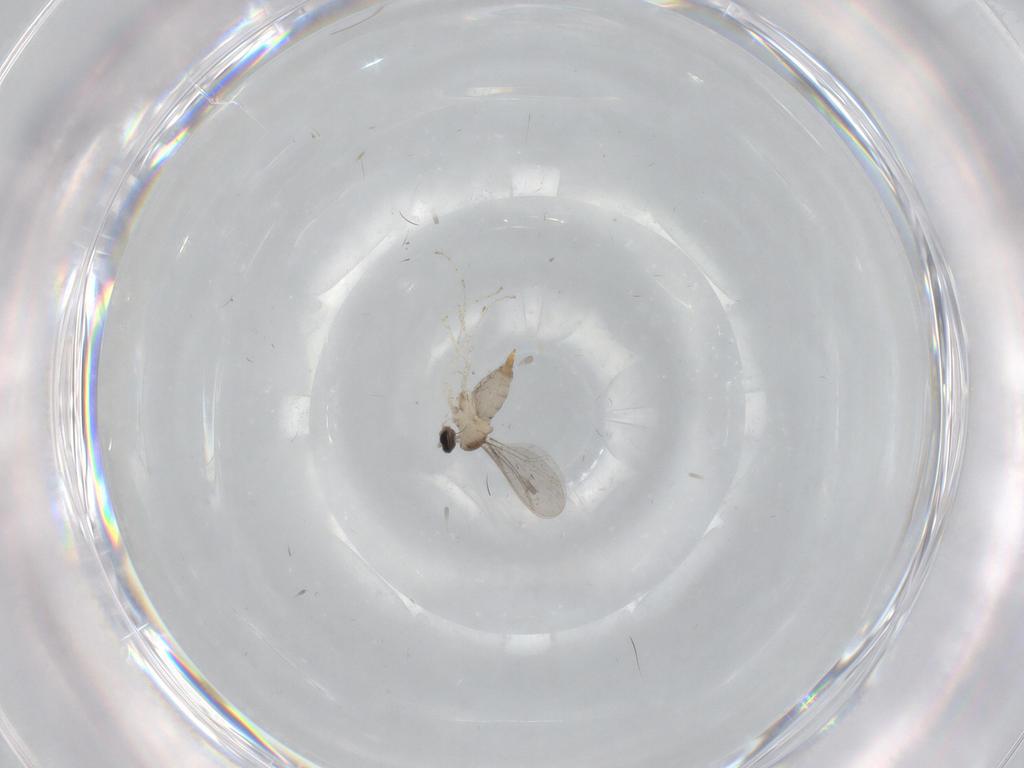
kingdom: Animalia
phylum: Arthropoda
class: Insecta
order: Diptera
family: Cecidomyiidae
